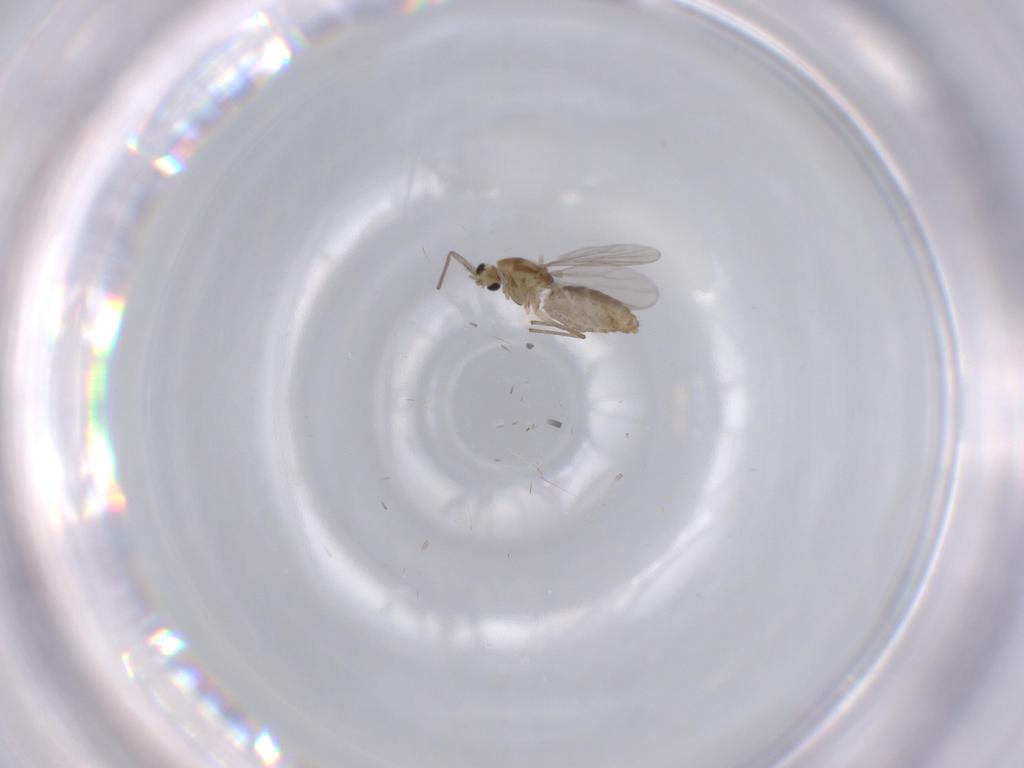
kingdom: Animalia
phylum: Arthropoda
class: Insecta
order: Diptera
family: Chironomidae
